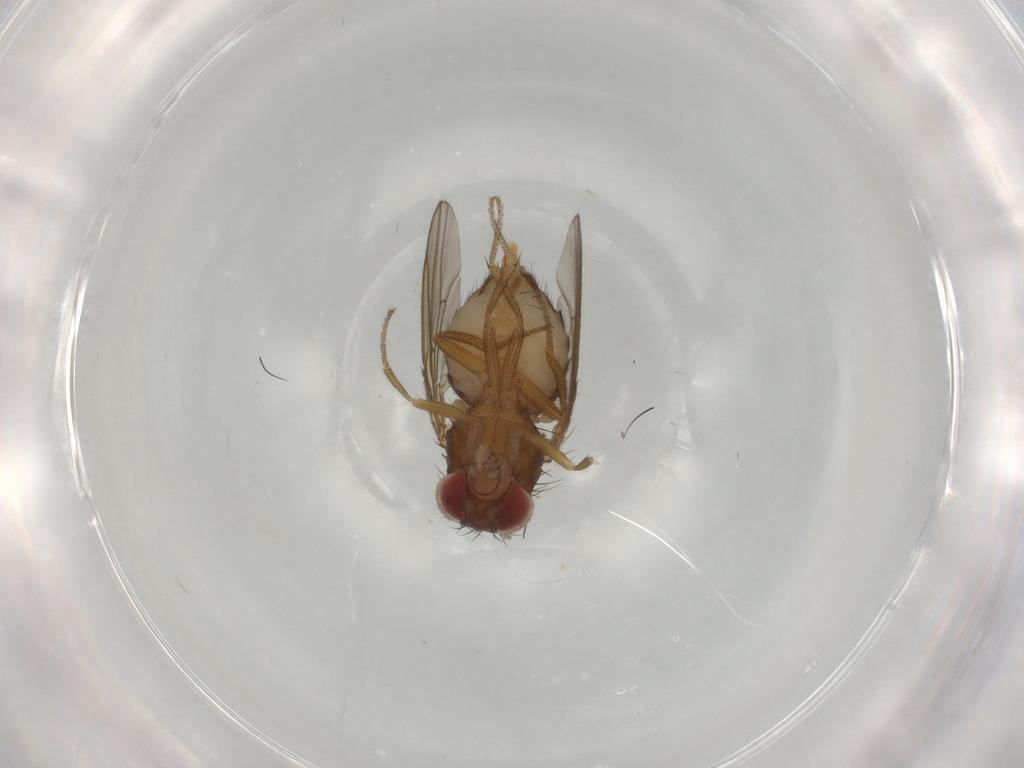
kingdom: Animalia
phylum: Arthropoda
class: Insecta
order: Diptera
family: Drosophilidae
